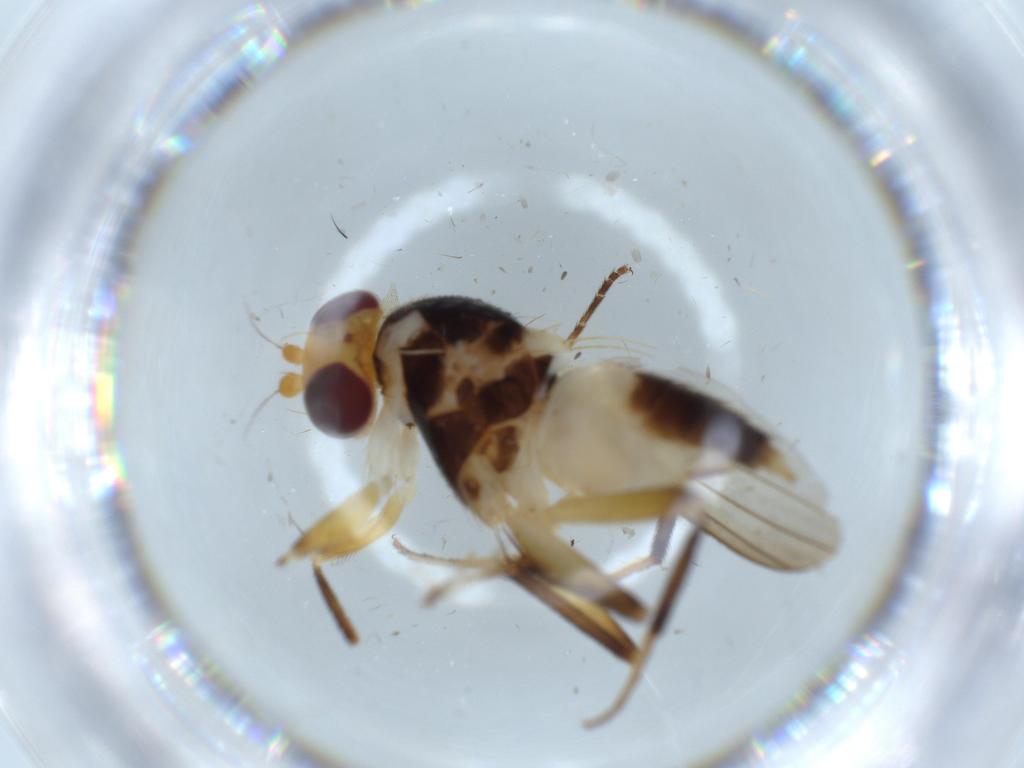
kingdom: Animalia
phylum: Arthropoda
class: Insecta
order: Diptera
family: Clusiidae
